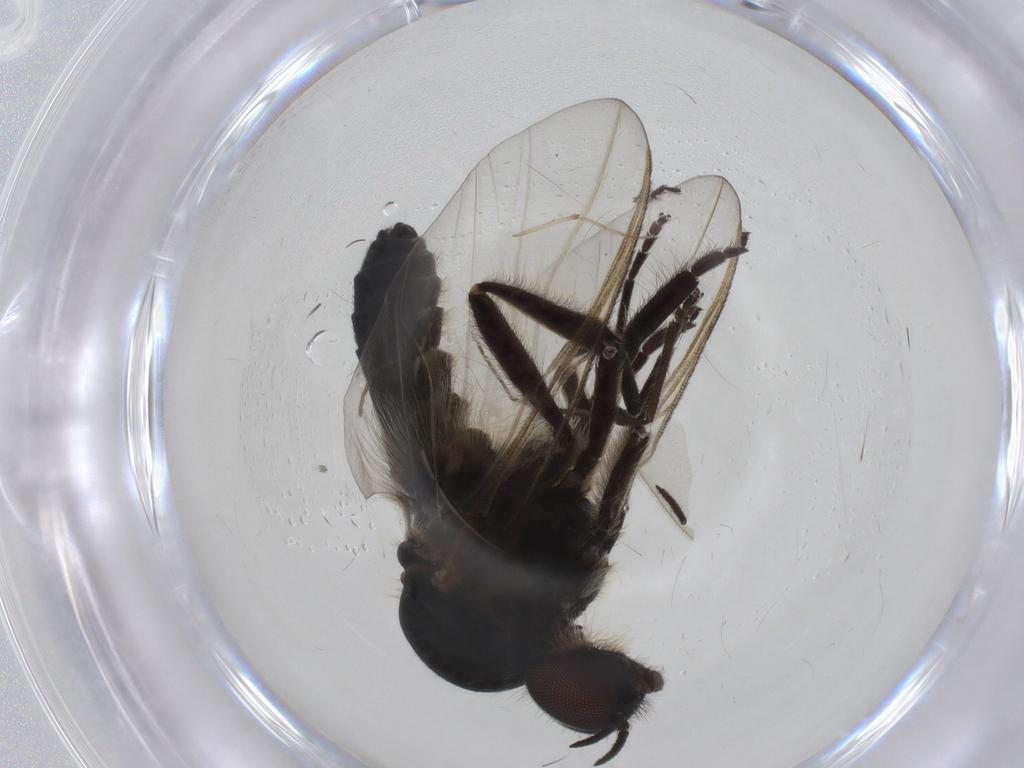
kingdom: Animalia
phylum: Arthropoda
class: Insecta
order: Diptera
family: Simuliidae
